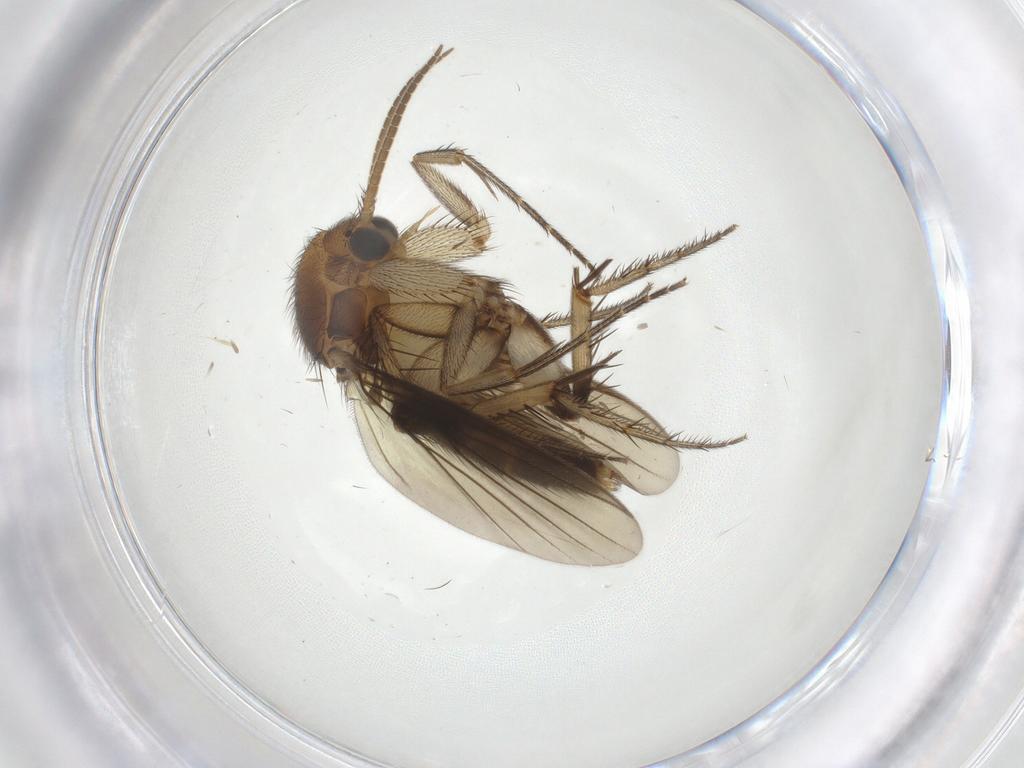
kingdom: Animalia
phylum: Arthropoda
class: Insecta
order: Diptera
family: Mycetophilidae
